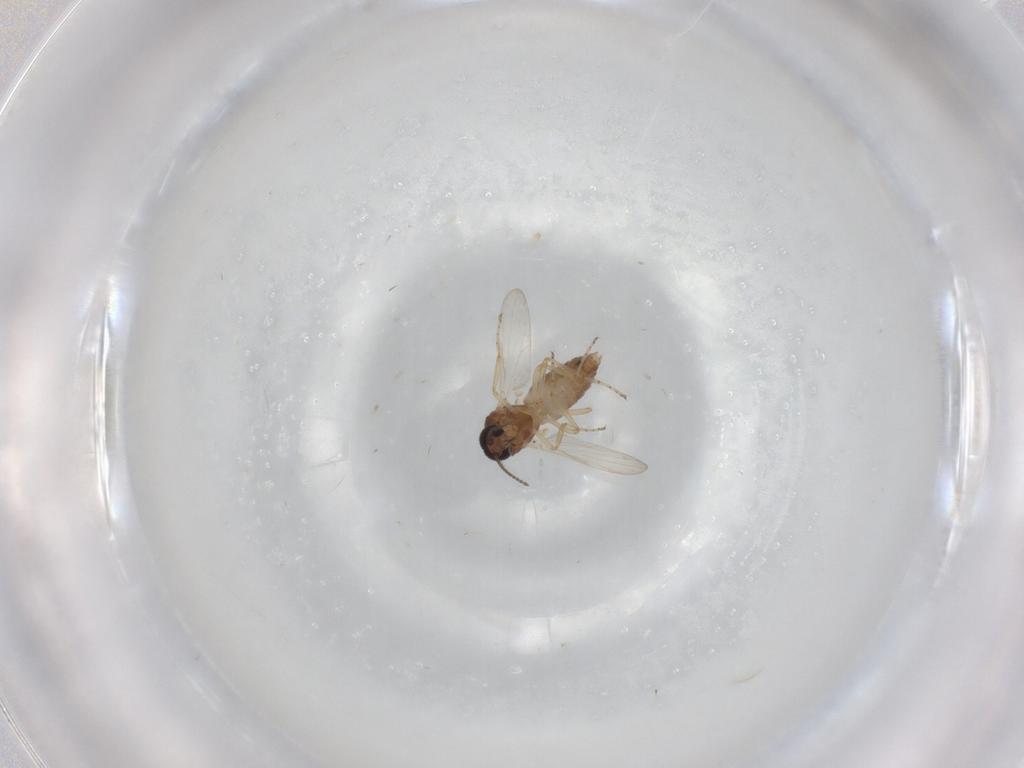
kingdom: Animalia
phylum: Arthropoda
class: Insecta
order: Diptera
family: Ceratopogonidae
